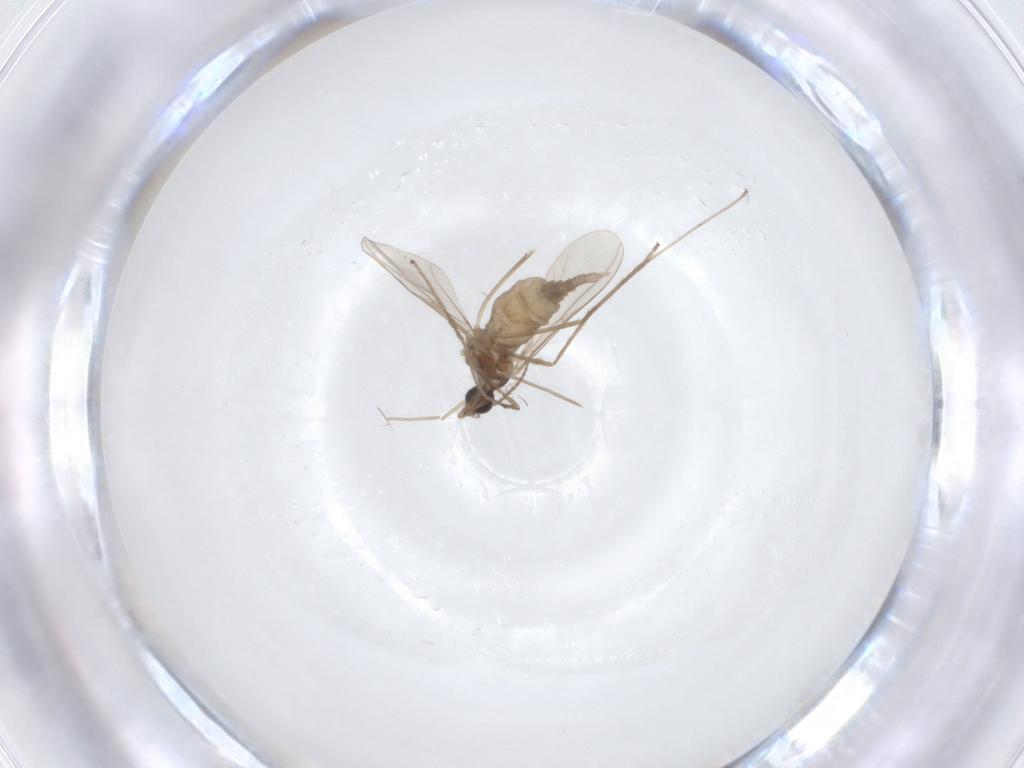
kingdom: Animalia
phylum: Arthropoda
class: Insecta
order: Diptera
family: Cecidomyiidae
